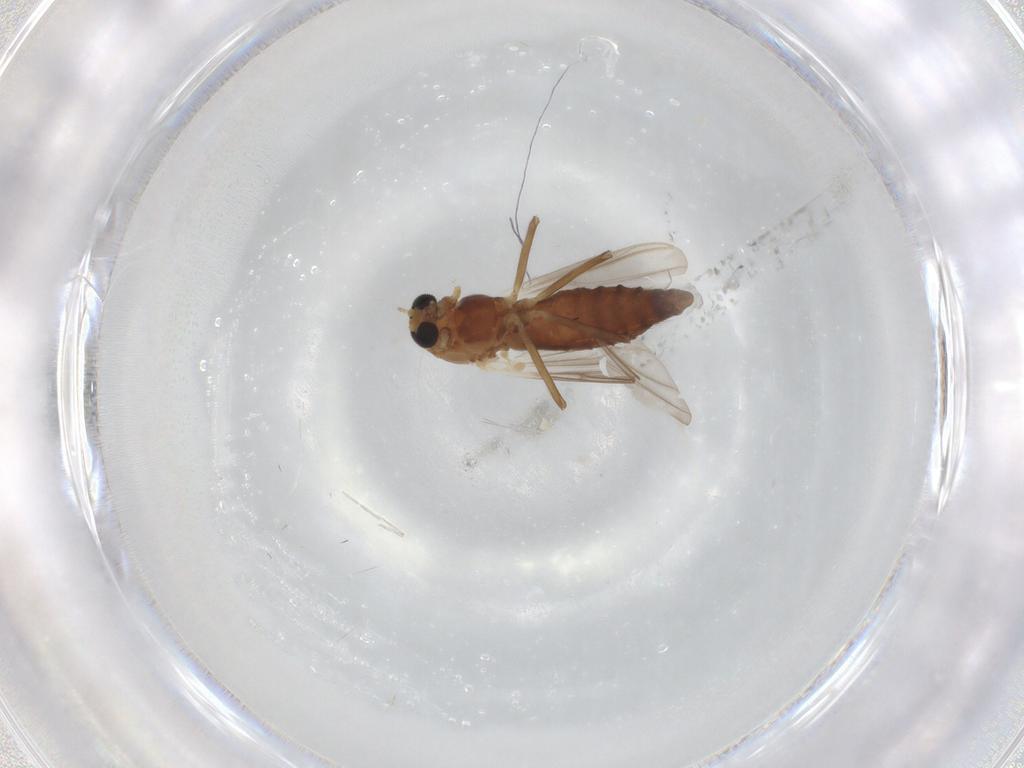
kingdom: Animalia
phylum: Arthropoda
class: Insecta
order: Diptera
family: Chironomidae
